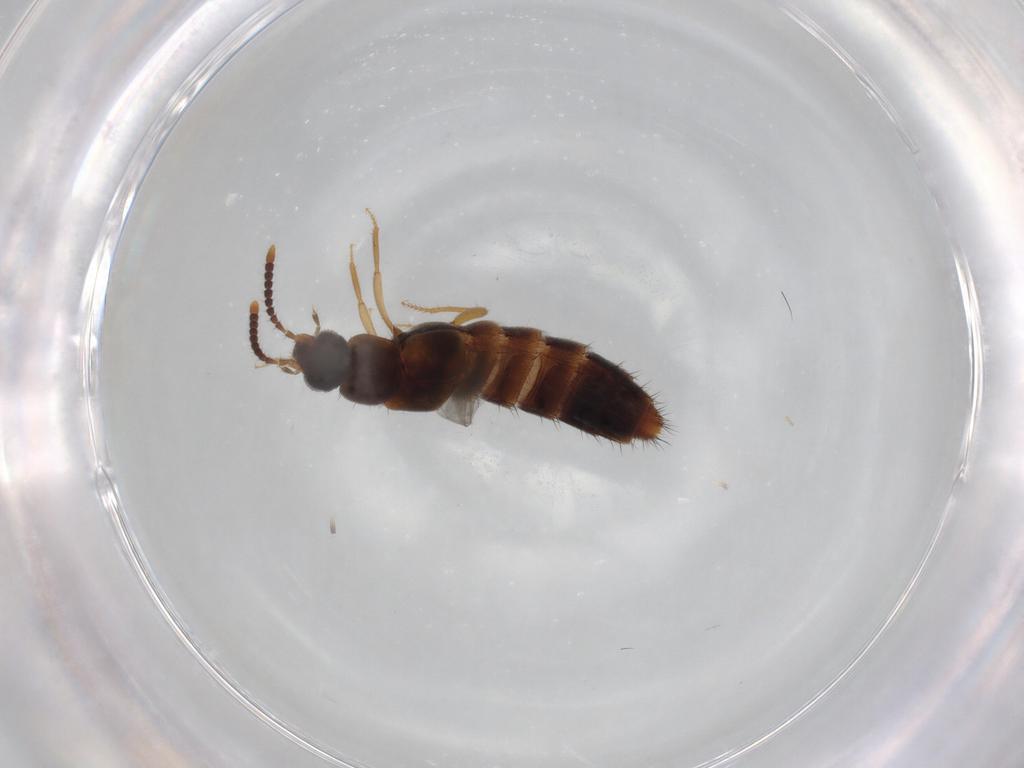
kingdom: Animalia
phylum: Arthropoda
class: Insecta
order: Coleoptera
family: Staphylinidae
